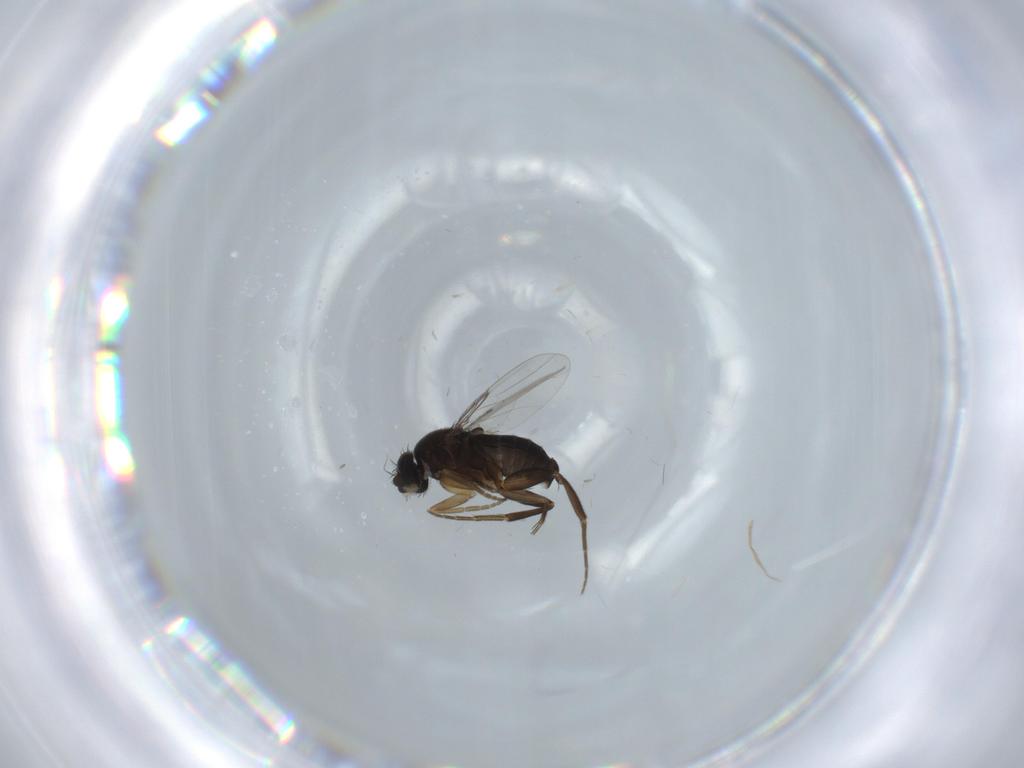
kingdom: Animalia
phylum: Arthropoda
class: Insecta
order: Diptera
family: Phoridae
